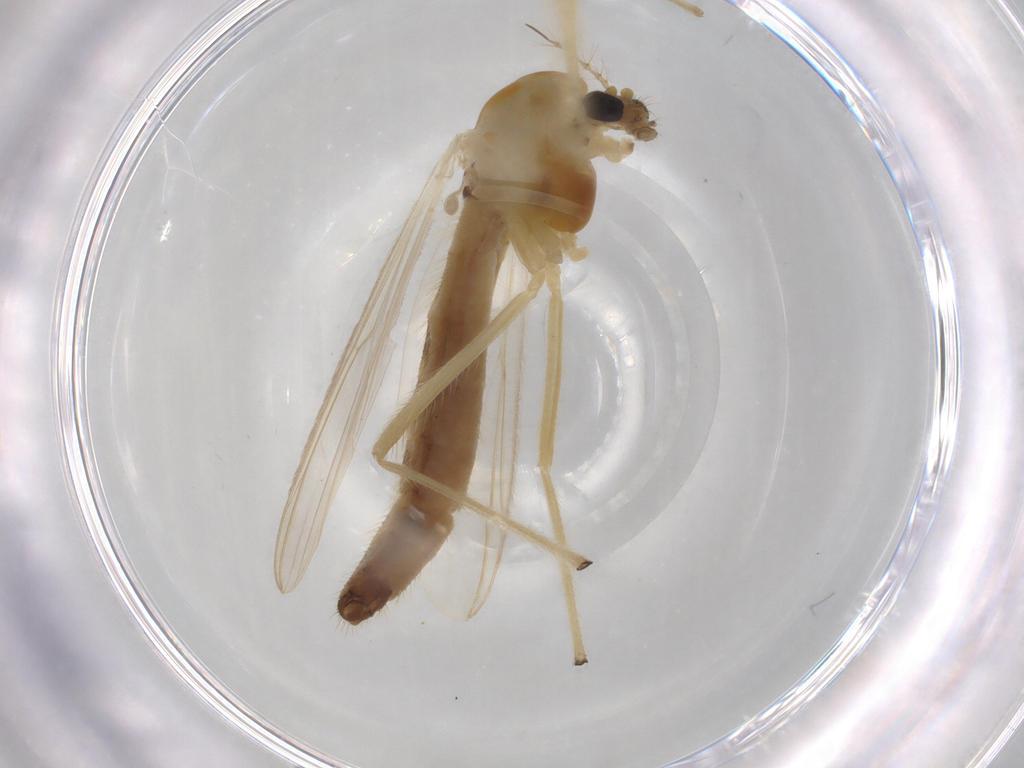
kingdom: Animalia
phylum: Arthropoda
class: Insecta
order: Diptera
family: Chironomidae
